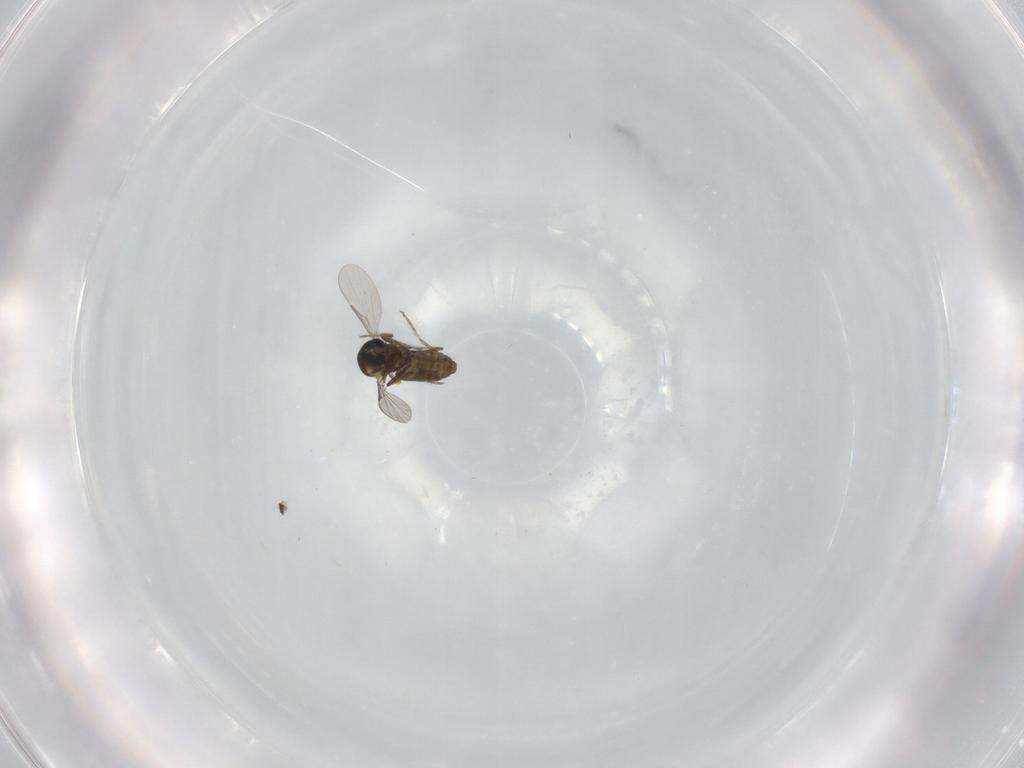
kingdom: Animalia
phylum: Arthropoda
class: Insecta
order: Diptera
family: Ceratopogonidae
